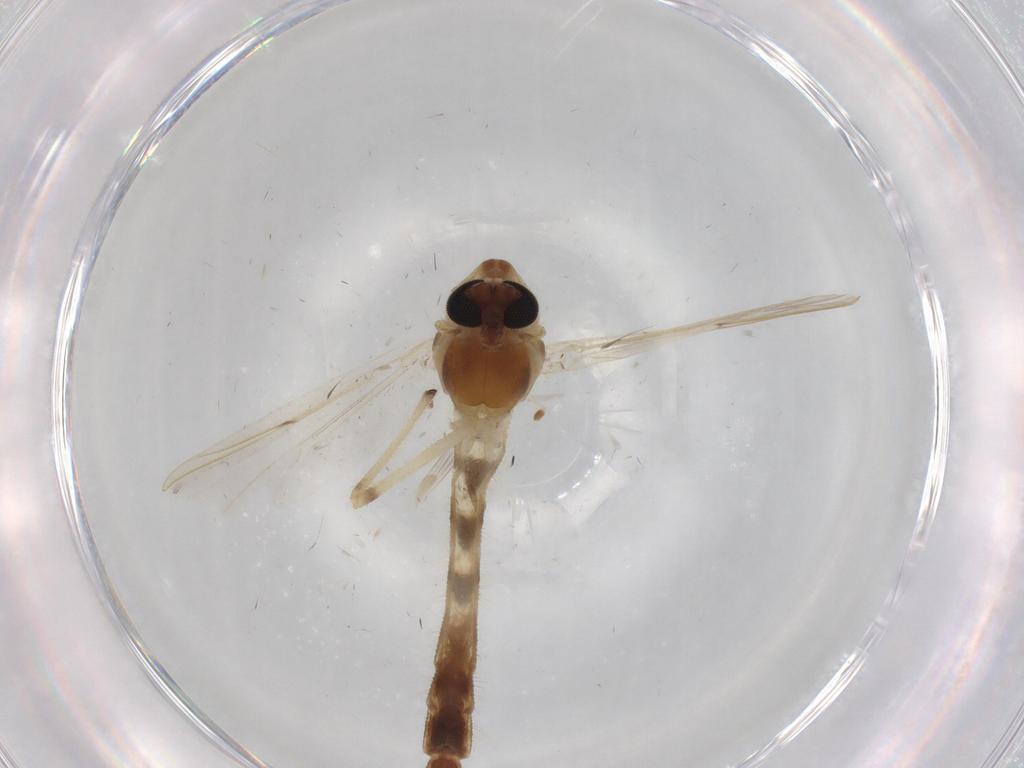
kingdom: Animalia
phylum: Arthropoda
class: Insecta
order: Diptera
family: Chironomidae
